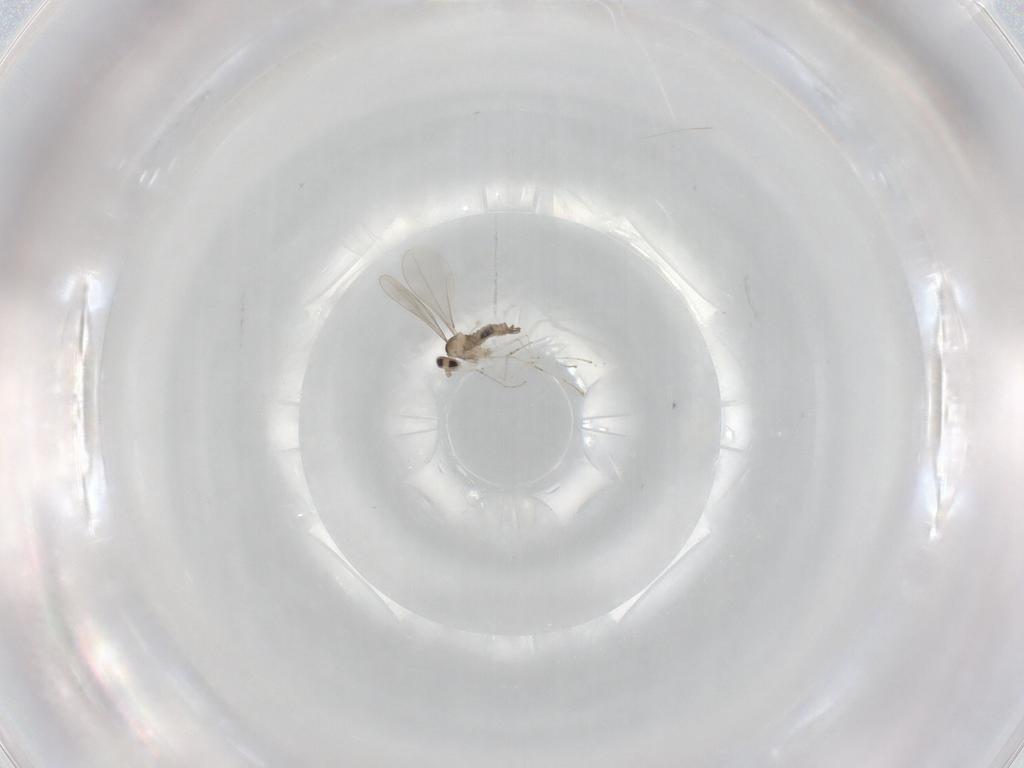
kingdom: Animalia
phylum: Arthropoda
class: Insecta
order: Diptera
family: Cecidomyiidae
